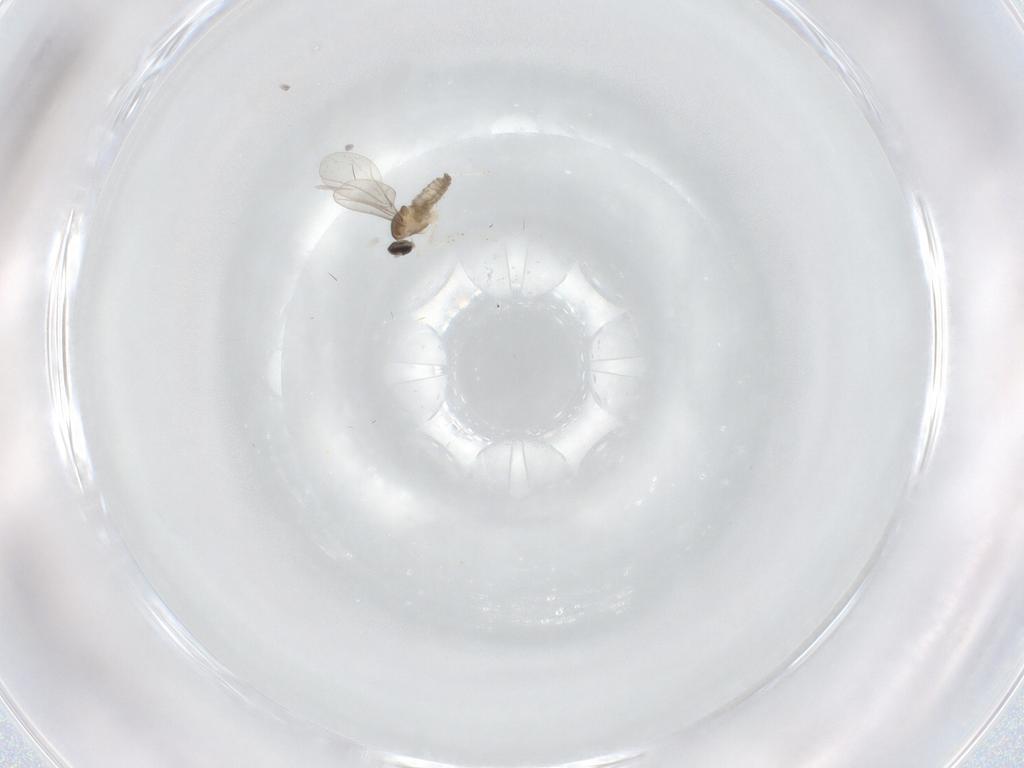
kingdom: Animalia
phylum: Arthropoda
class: Insecta
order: Diptera
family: Cecidomyiidae
